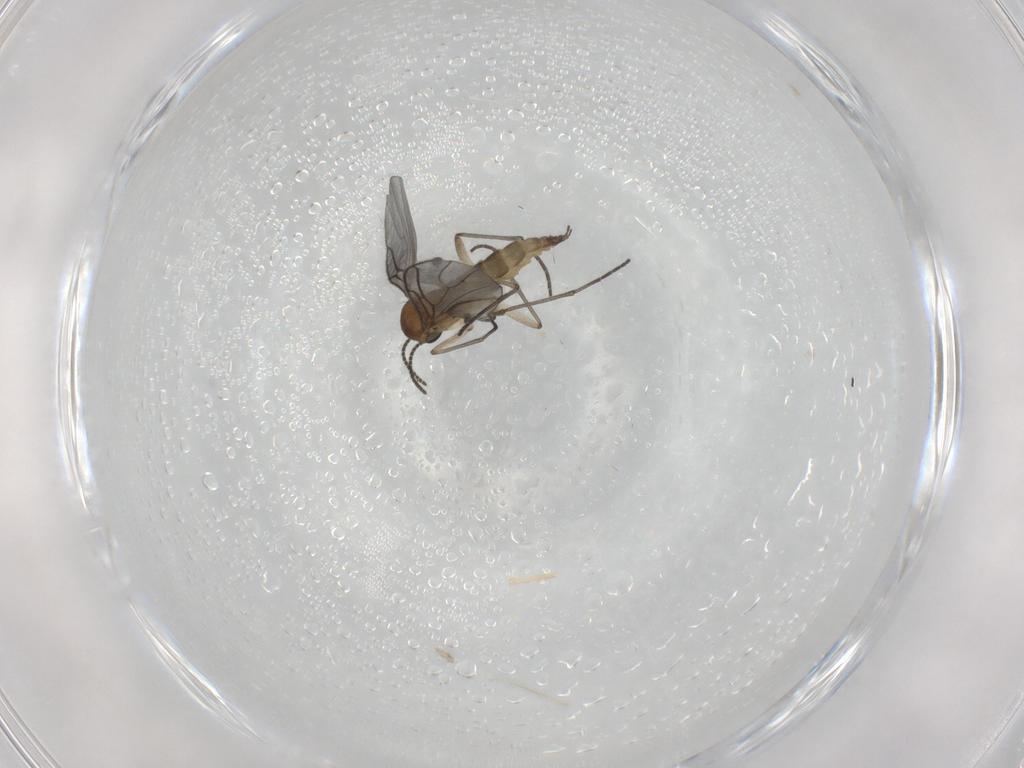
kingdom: Animalia
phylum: Arthropoda
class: Insecta
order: Diptera
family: Sciaridae
